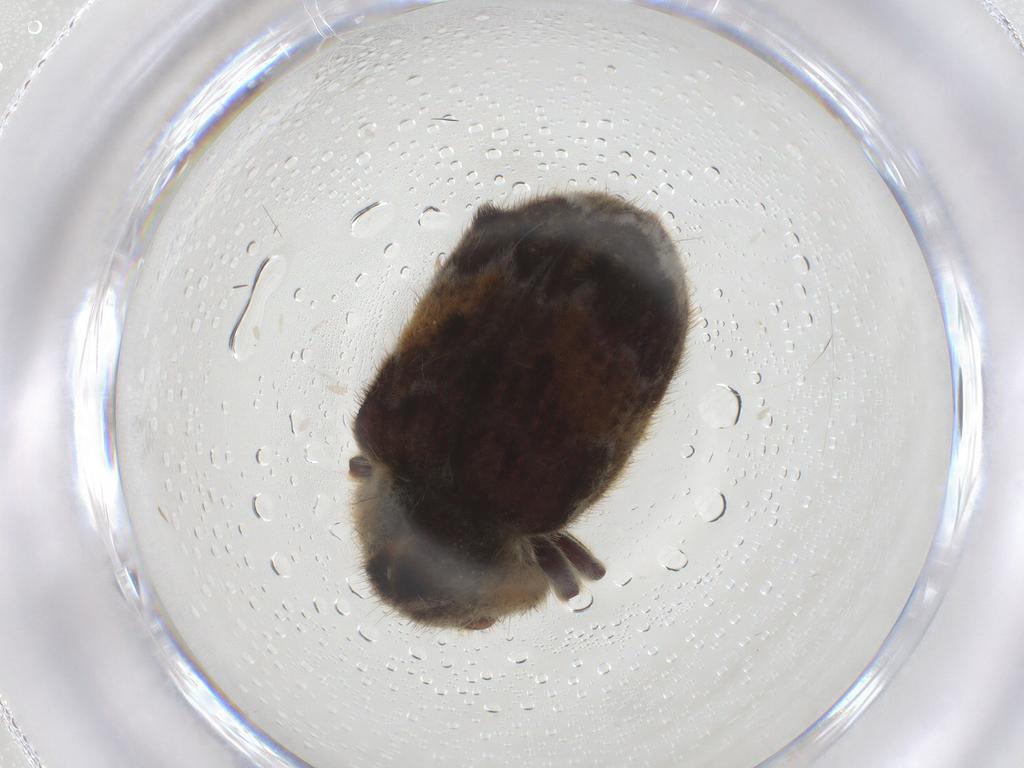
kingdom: Animalia
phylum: Arthropoda
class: Insecta
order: Coleoptera
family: Ptinidae
